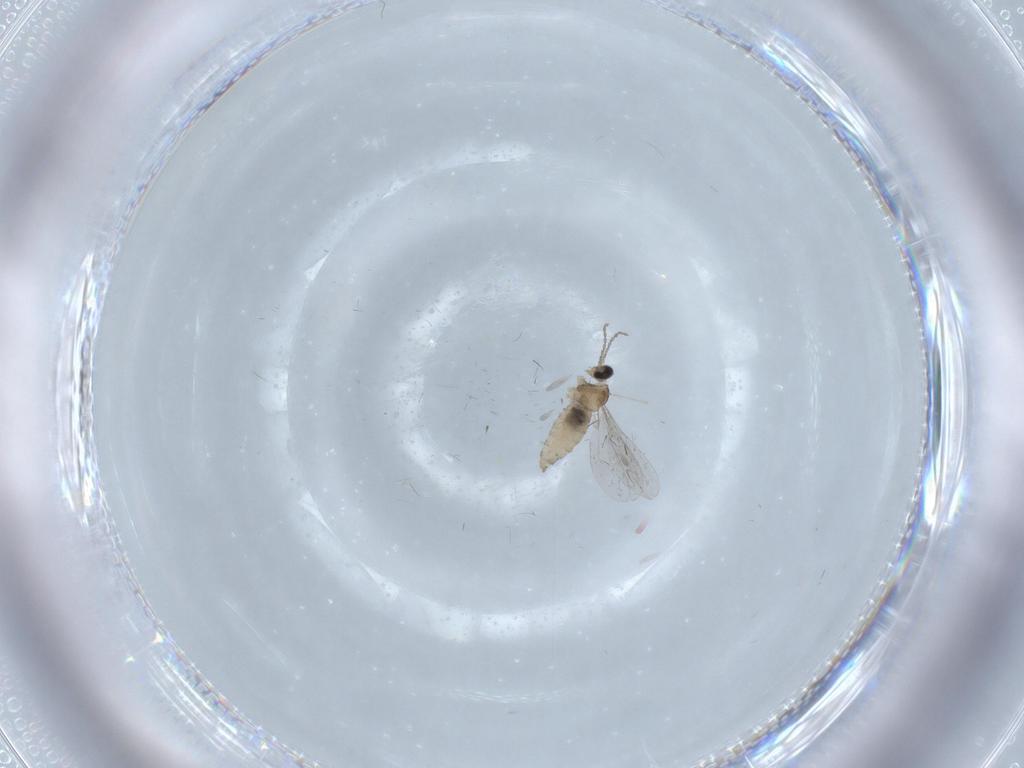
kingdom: Animalia
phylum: Arthropoda
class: Insecta
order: Diptera
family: Cecidomyiidae
